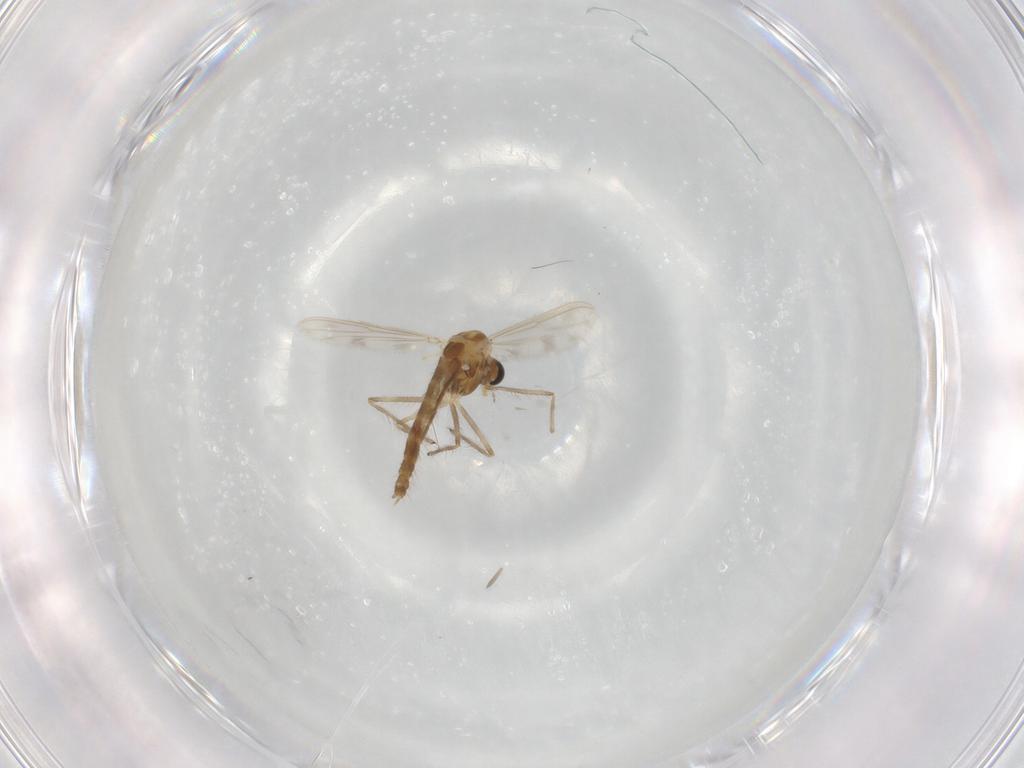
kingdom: Animalia
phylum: Arthropoda
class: Insecta
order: Diptera
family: Chironomidae
